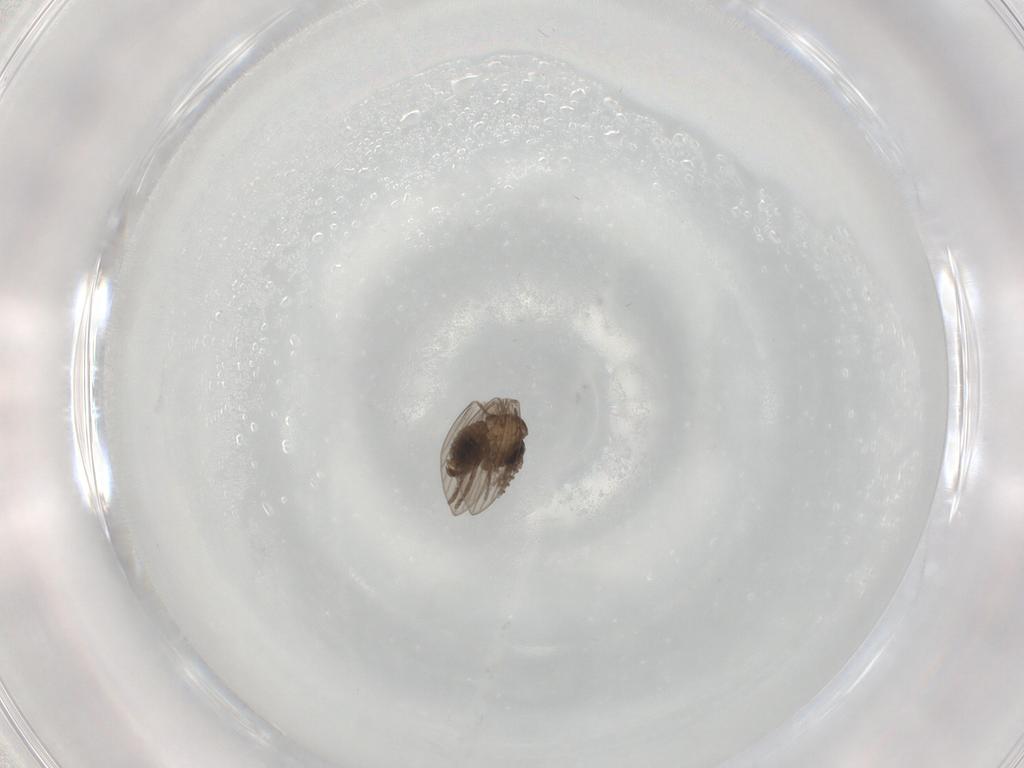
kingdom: Animalia
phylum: Arthropoda
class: Insecta
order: Diptera
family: Psychodidae
